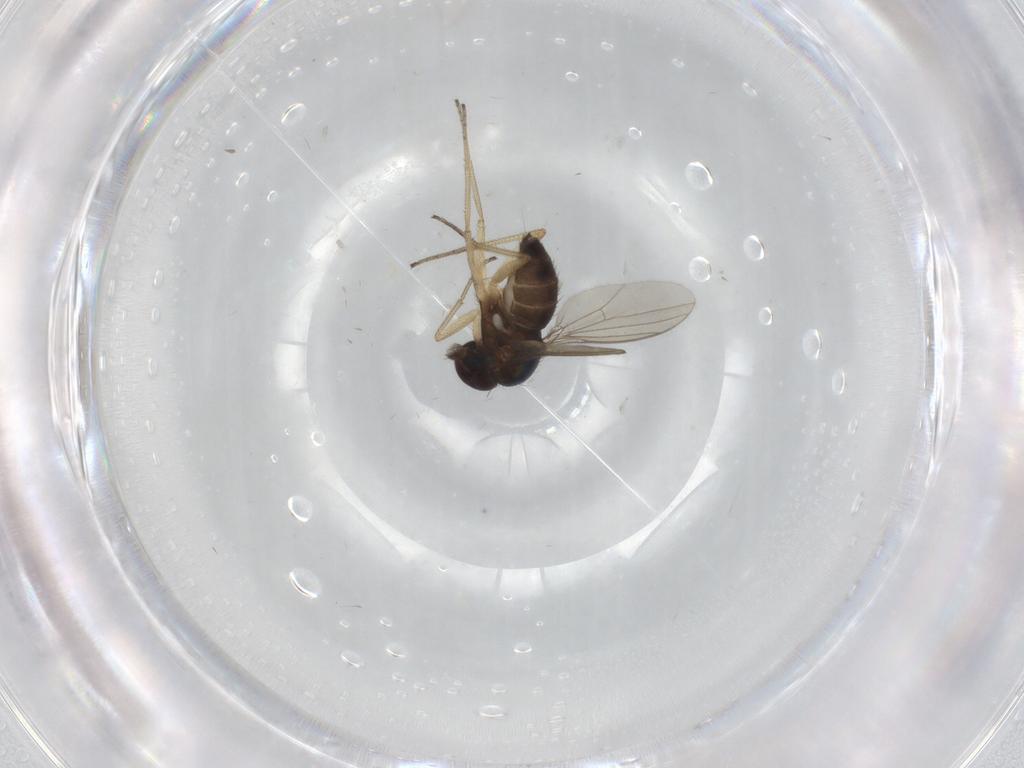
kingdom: Animalia
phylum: Arthropoda
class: Insecta
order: Diptera
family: Dolichopodidae
